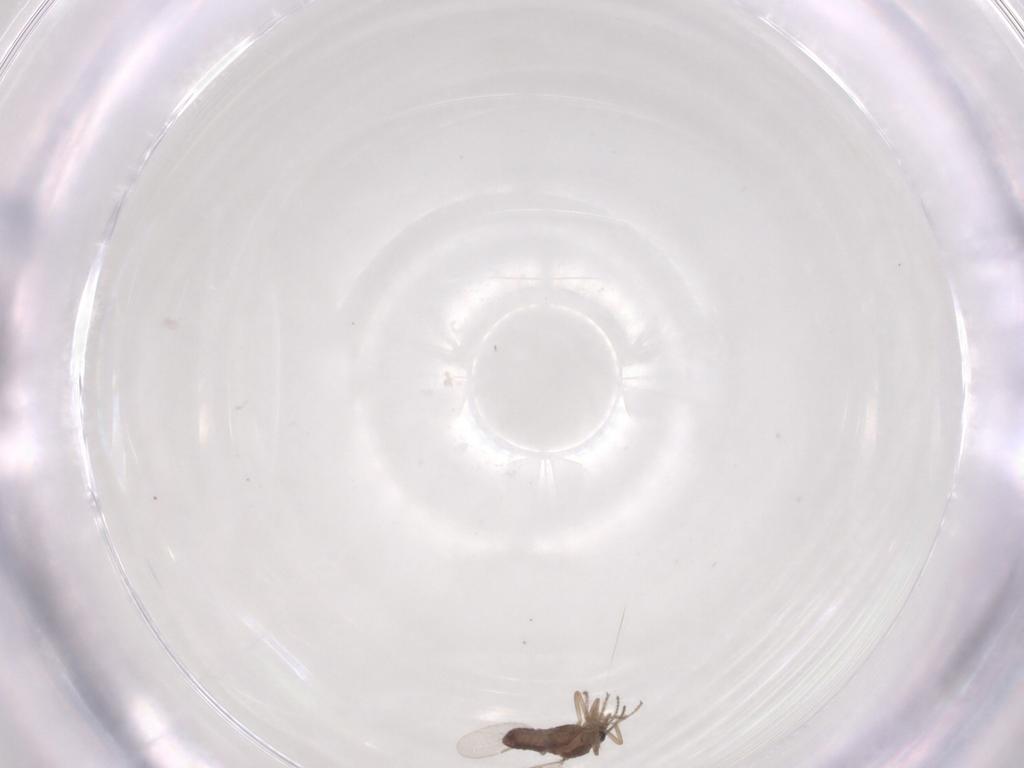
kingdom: Animalia
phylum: Arthropoda
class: Insecta
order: Diptera
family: Ceratopogonidae
